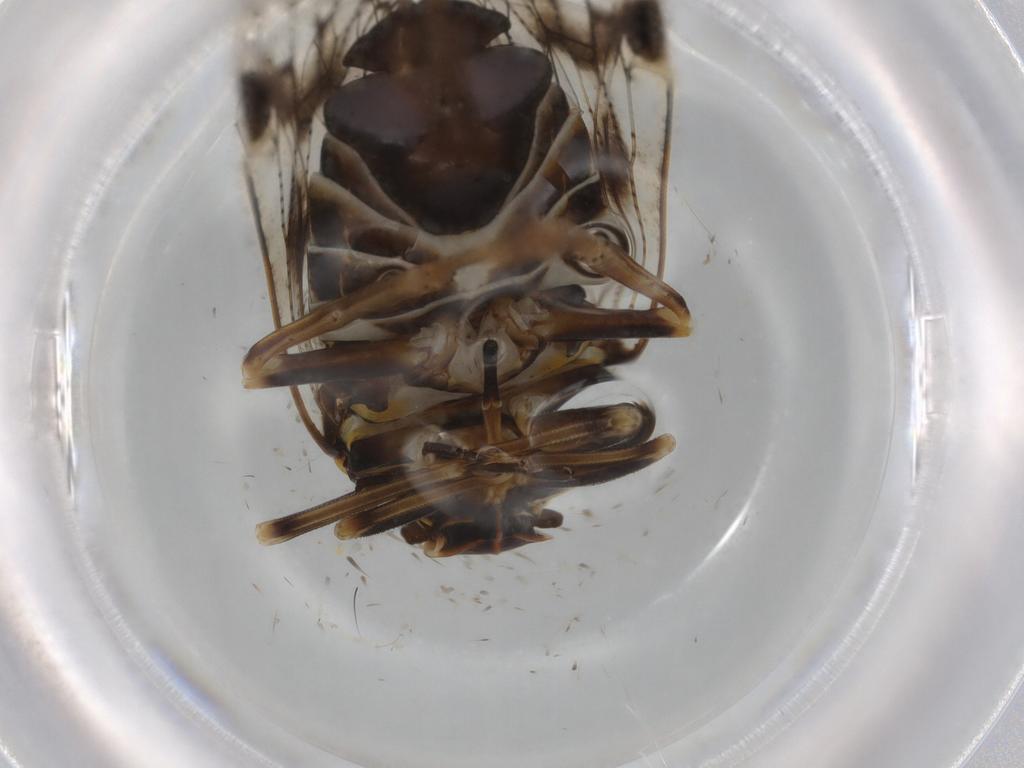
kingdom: Animalia
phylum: Arthropoda
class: Insecta
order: Hemiptera
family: Cixiidae
